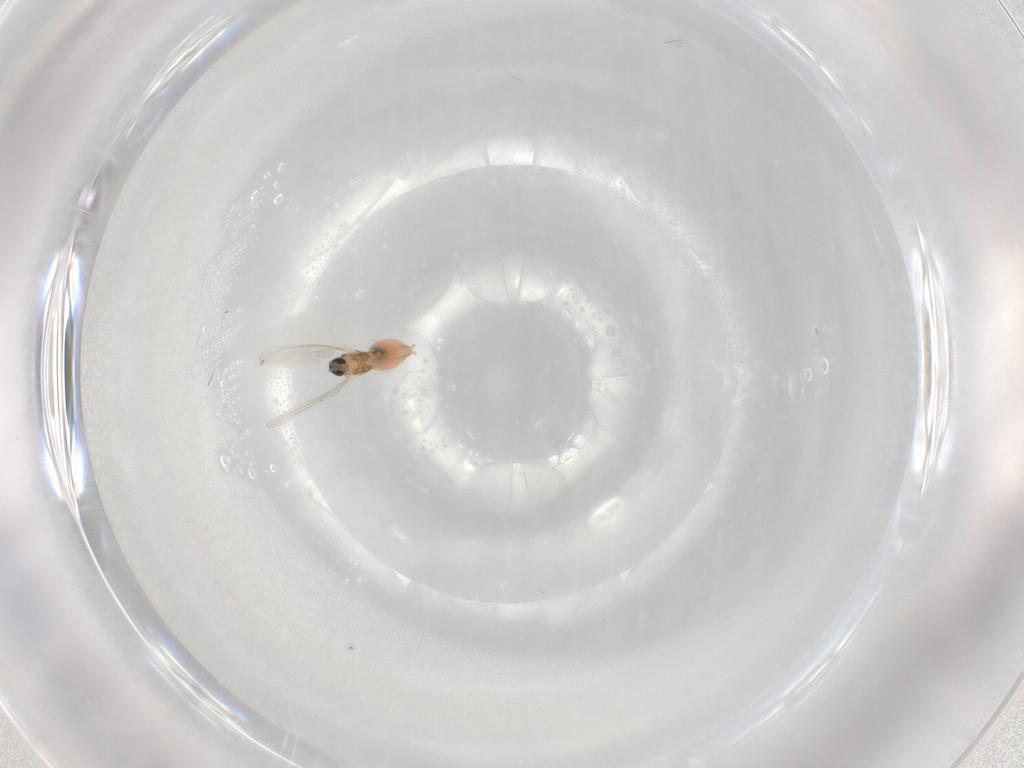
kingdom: Animalia
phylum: Arthropoda
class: Insecta
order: Diptera
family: Cecidomyiidae
